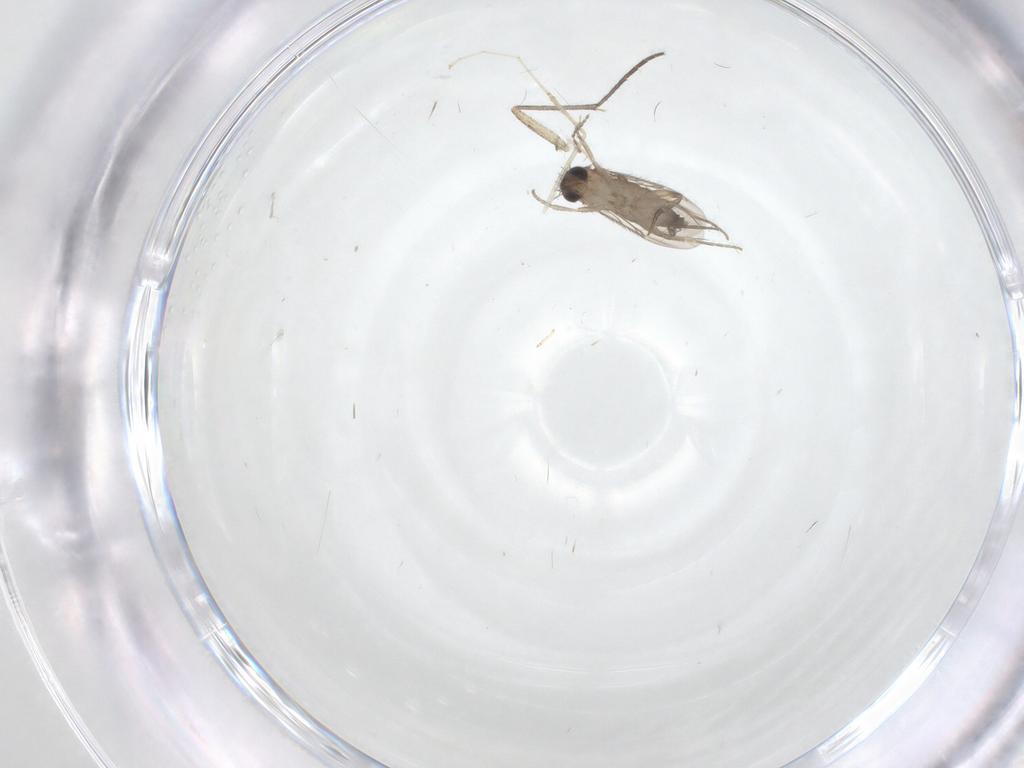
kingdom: Animalia
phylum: Arthropoda
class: Insecta
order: Diptera
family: Phoridae
